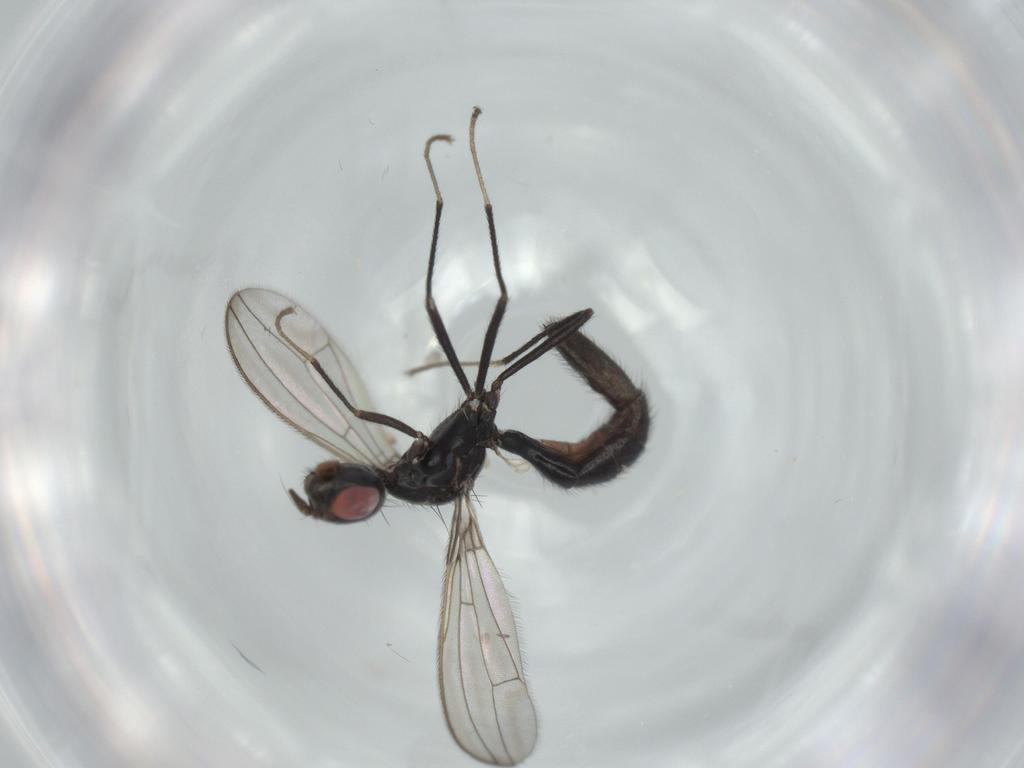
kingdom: Animalia
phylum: Arthropoda
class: Insecta
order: Diptera
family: Richardiidae
